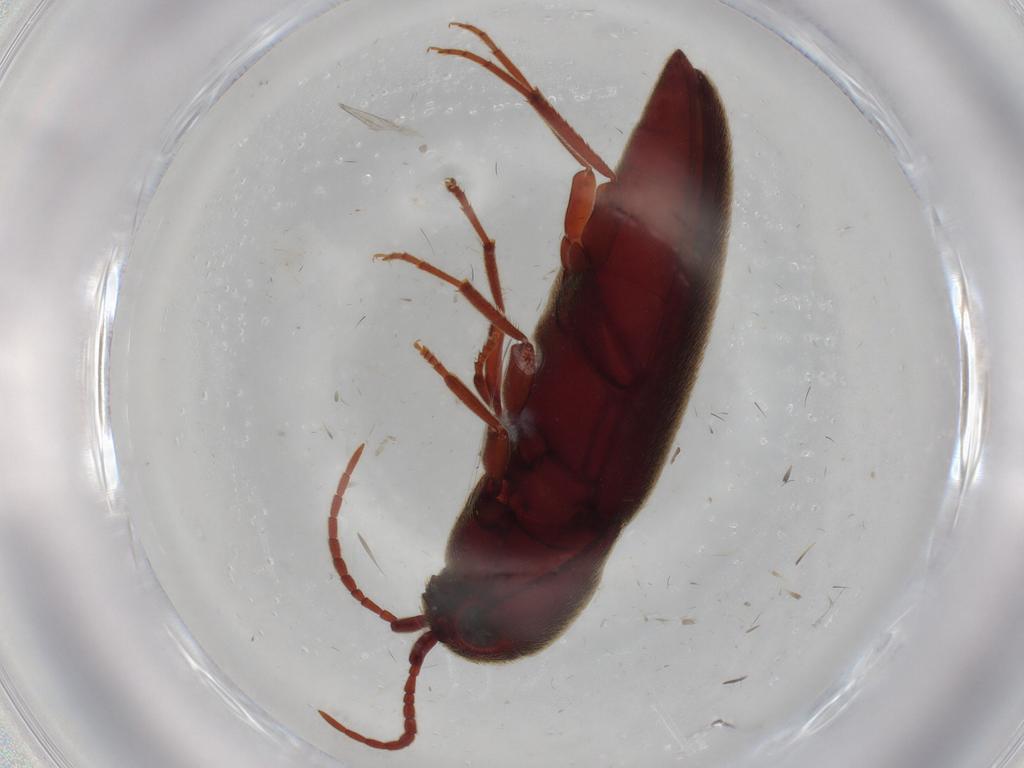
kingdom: Animalia
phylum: Arthropoda
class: Insecta
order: Coleoptera
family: Eucnemidae
